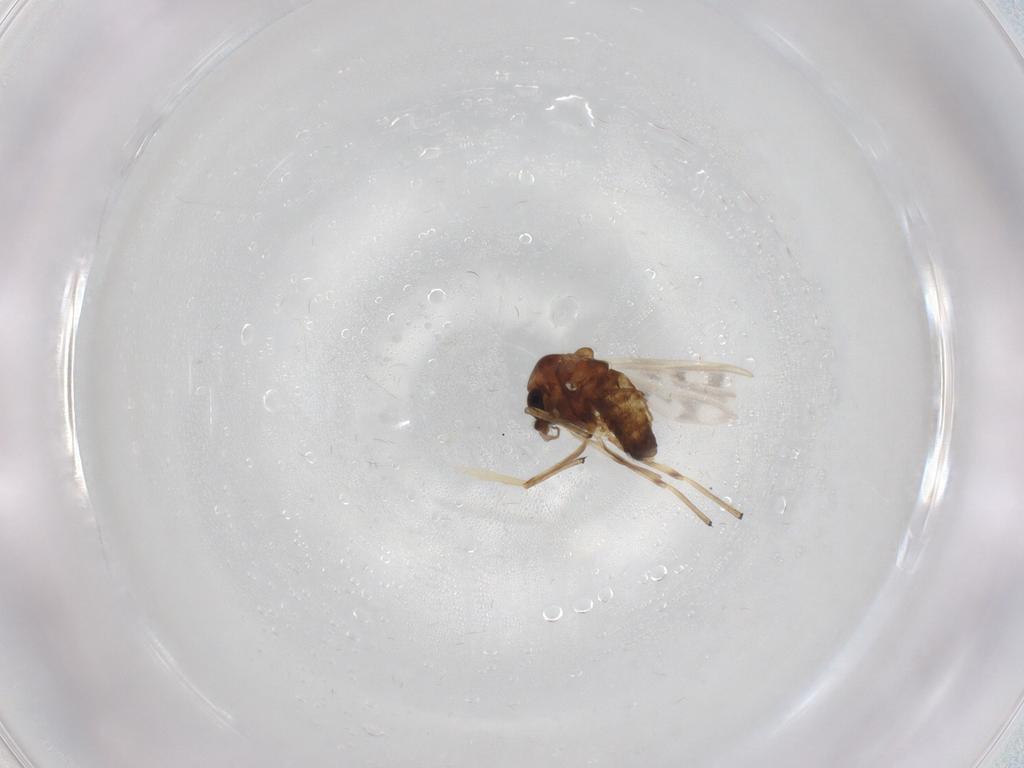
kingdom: Animalia
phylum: Arthropoda
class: Insecta
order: Diptera
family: Chironomidae
